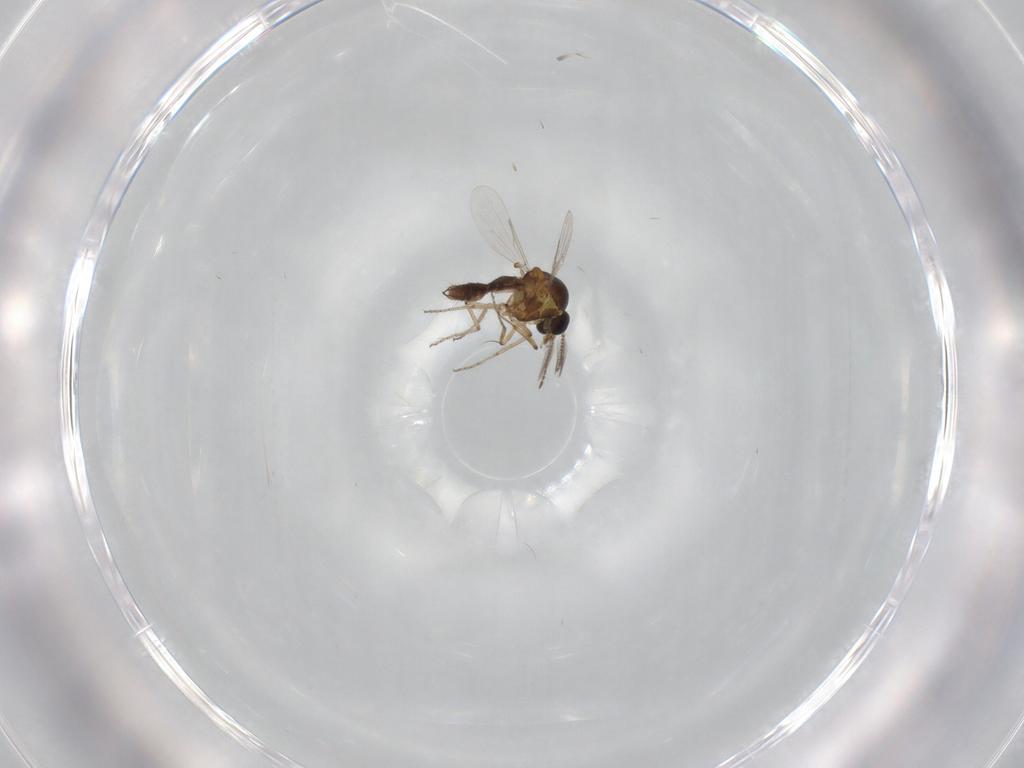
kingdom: Animalia
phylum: Arthropoda
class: Insecta
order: Diptera
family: Ceratopogonidae
